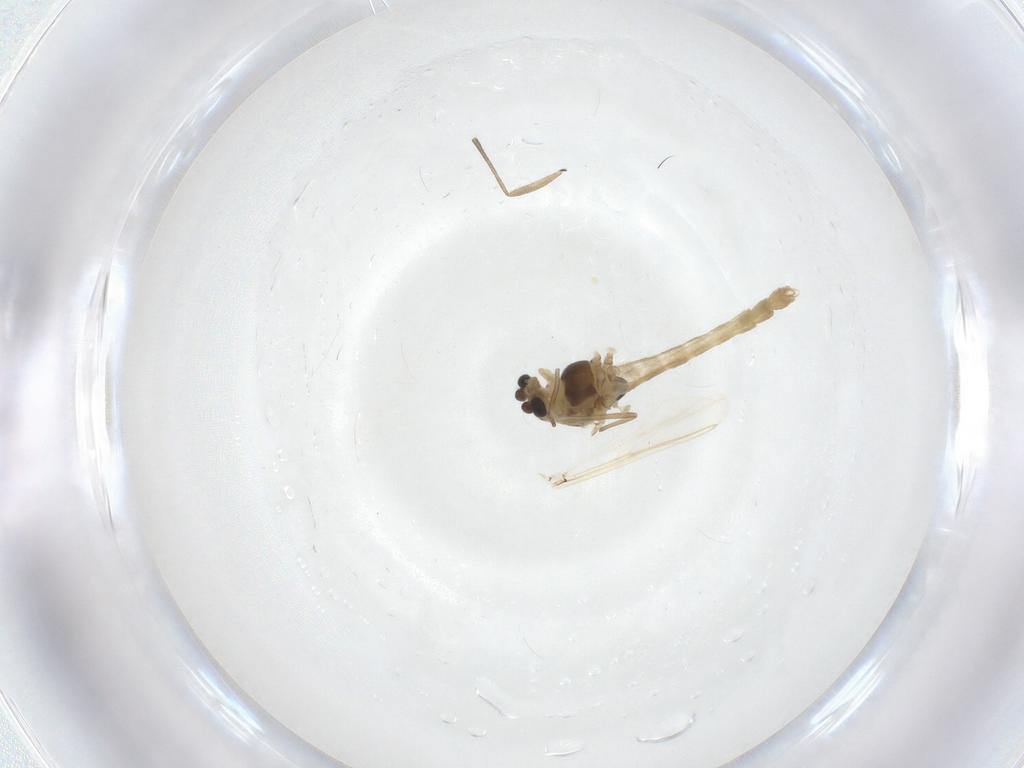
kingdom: Animalia
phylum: Arthropoda
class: Insecta
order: Diptera
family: Chironomidae
